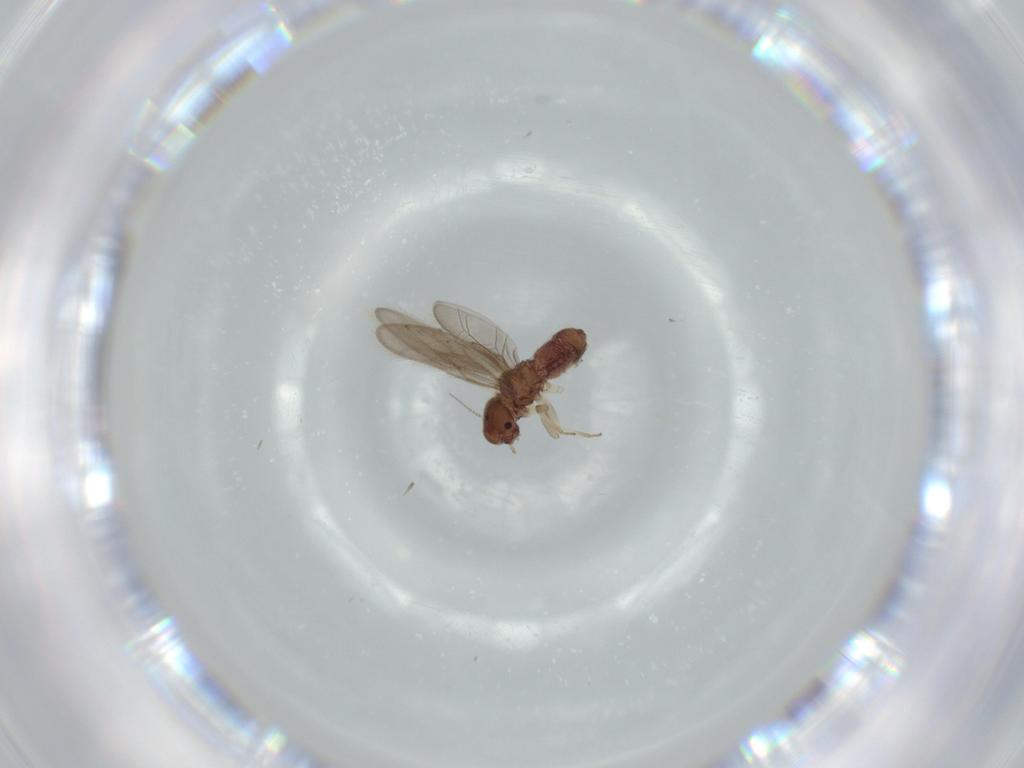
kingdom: Animalia
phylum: Arthropoda
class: Insecta
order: Psocodea
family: Archipsocidae
